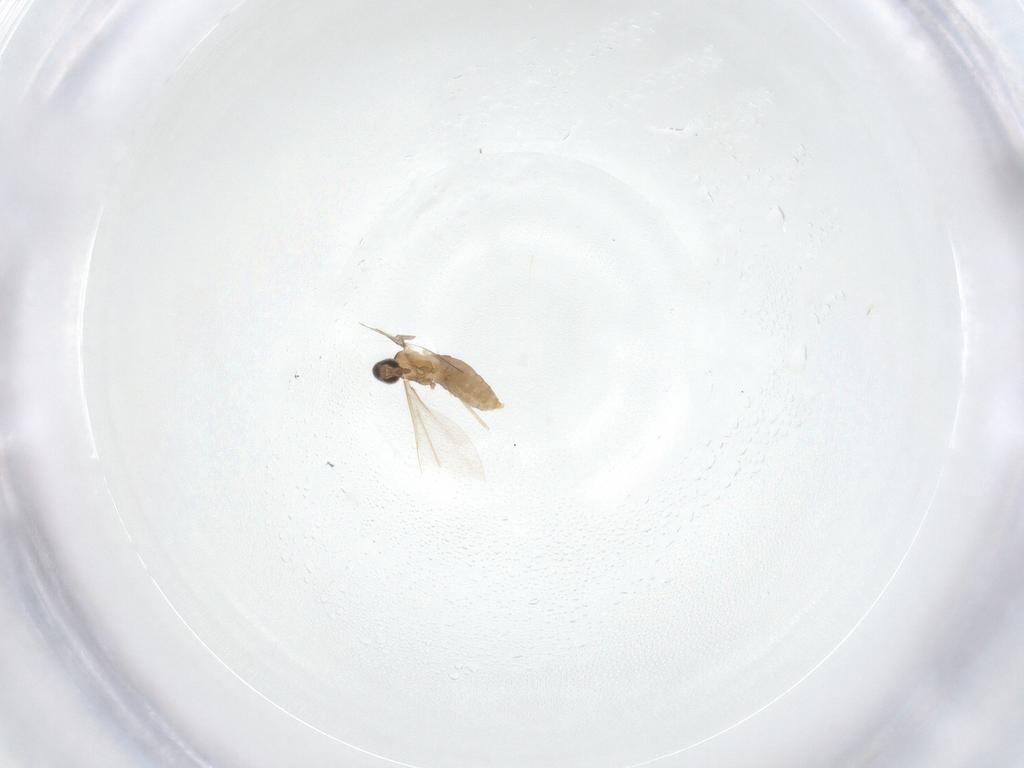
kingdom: Animalia
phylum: Arthropoda
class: Insecta
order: Diptera
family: Cecidomyiidae
